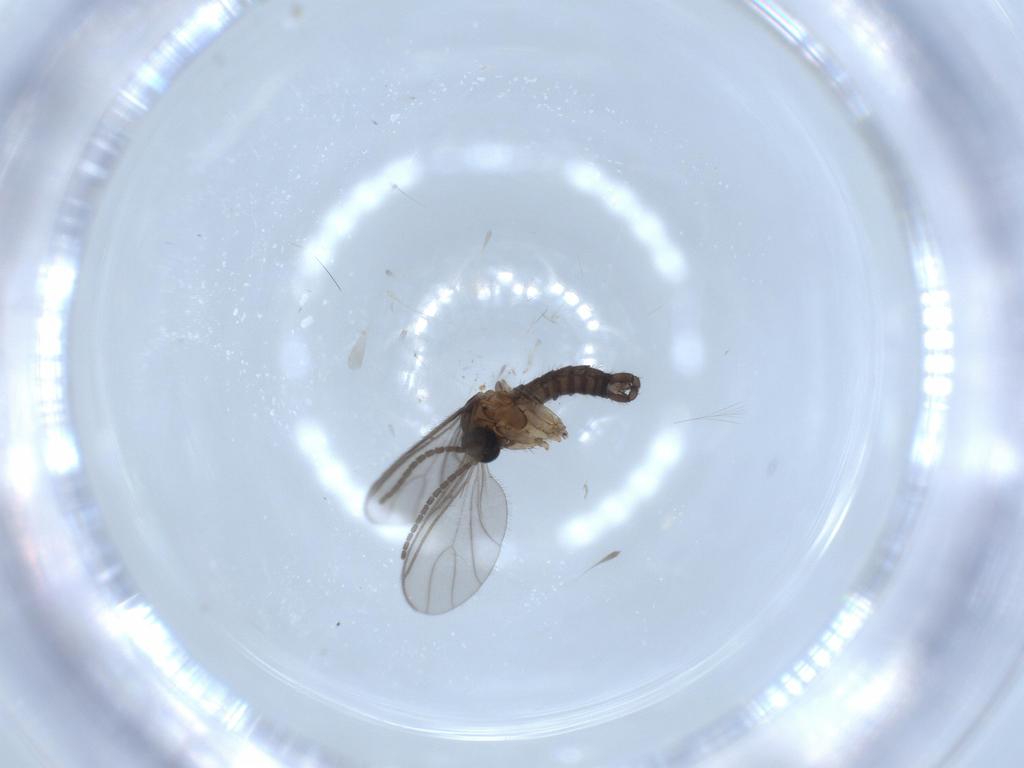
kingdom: Animalia
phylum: Arthropoda
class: Insecta
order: Diptera
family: Sciaridae
